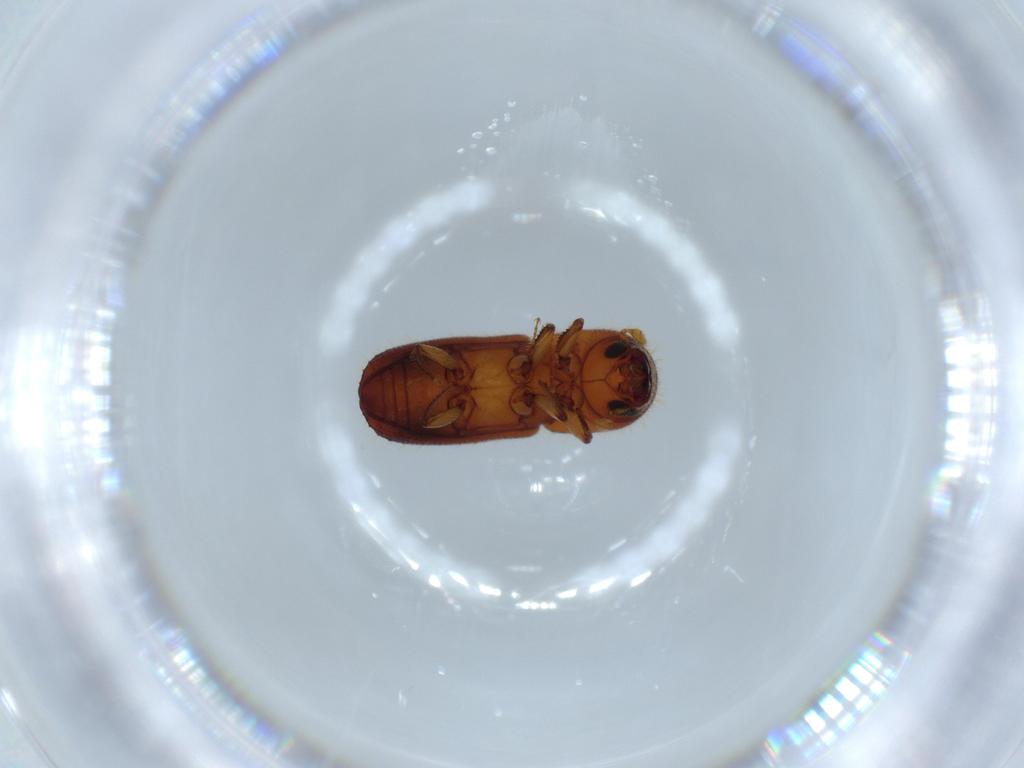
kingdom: Animalia
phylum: Arthropoda
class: Insecta
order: Coleoptera
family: Curculionidae
